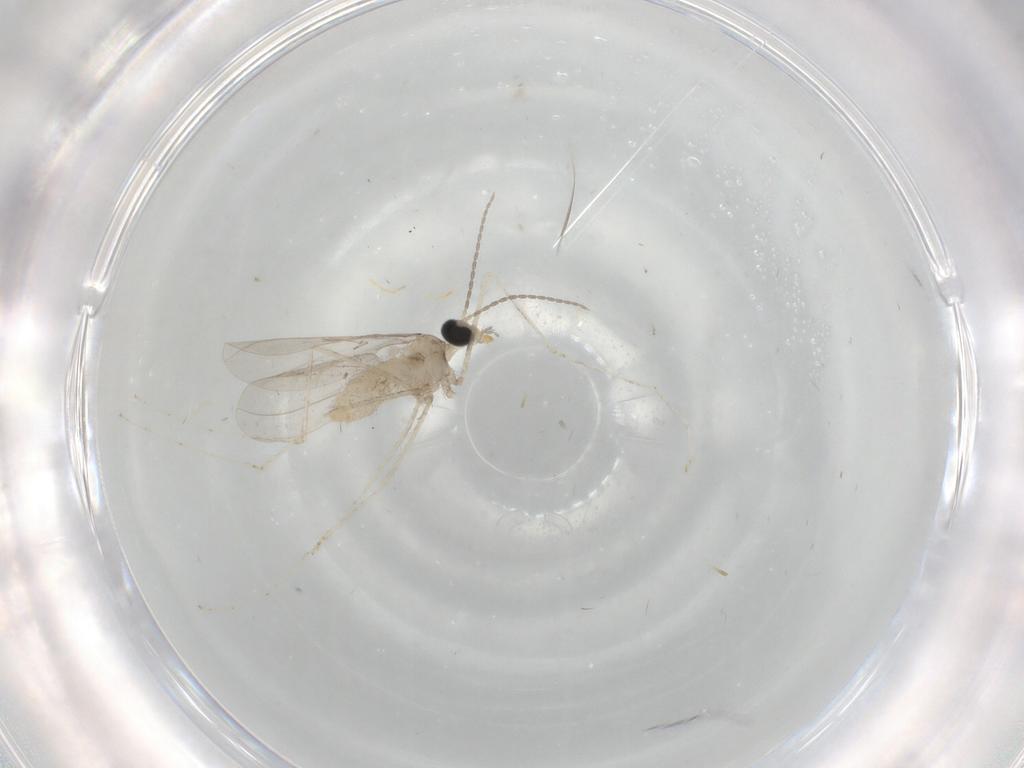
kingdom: Animalia
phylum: Arthropoda
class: Insecta
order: Diptera
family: Cecidomyiidae
